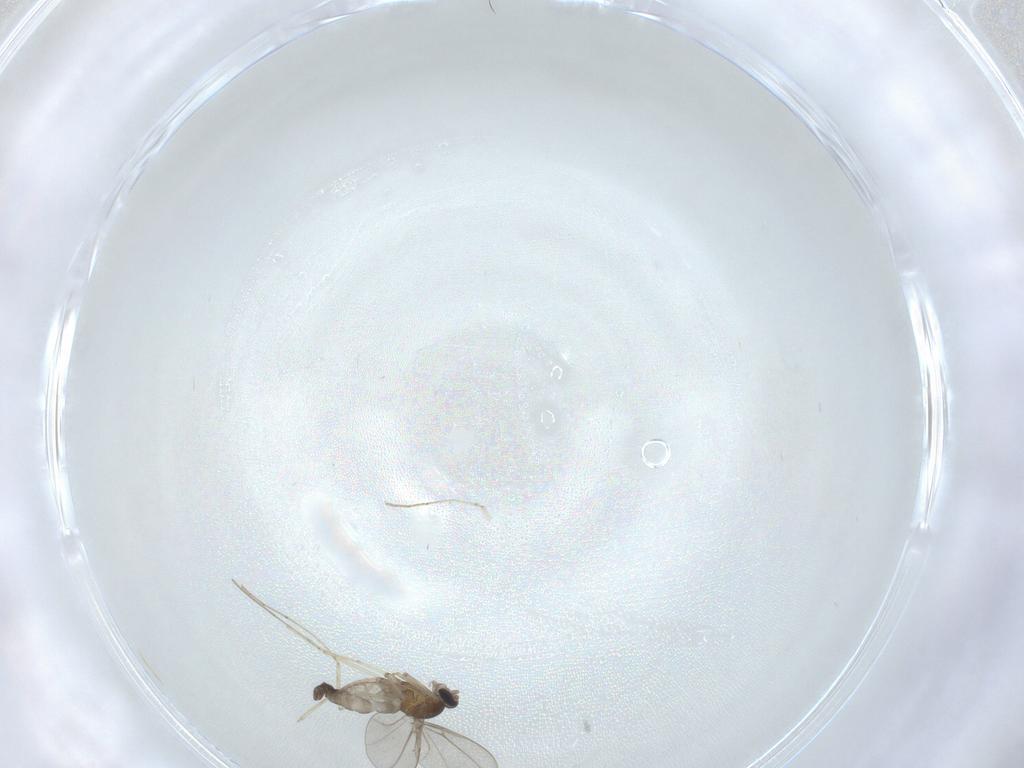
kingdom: Animalia
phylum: Arthropoda
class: Insecta
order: Diptera
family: Cecidomyiidae
